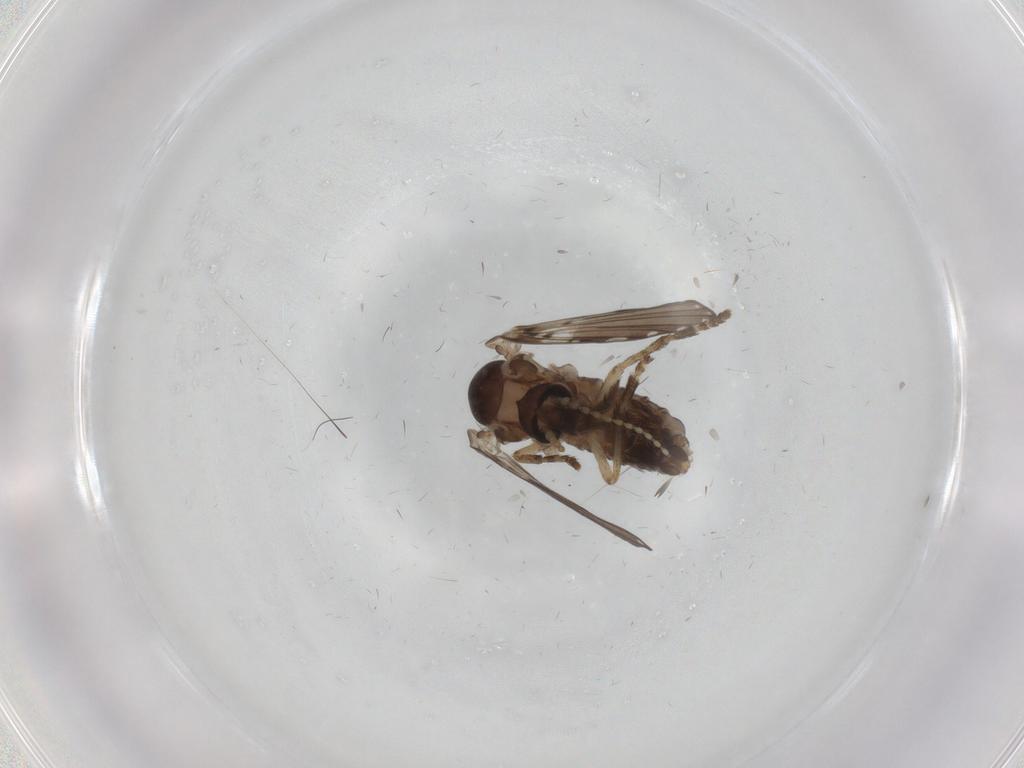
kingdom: Animalia
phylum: Arthropoda
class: Insecta
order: Diptera
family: Psychodidae
